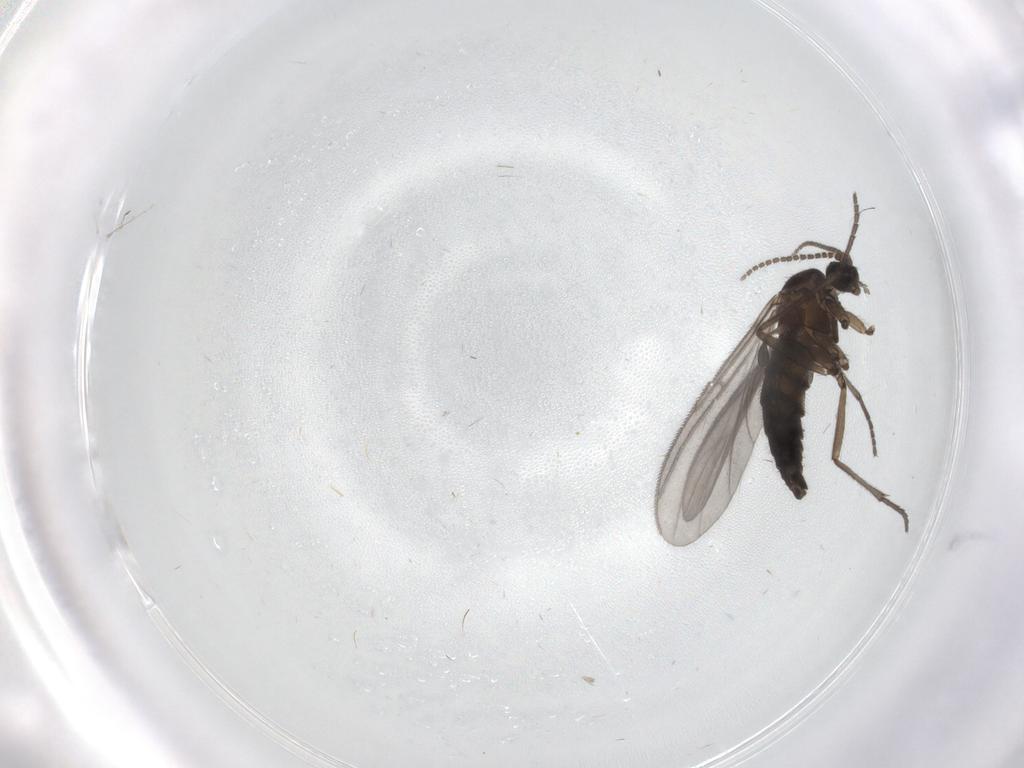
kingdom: Animalia
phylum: Arthropoda
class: Insecta
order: Diptera
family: Sciaridae
